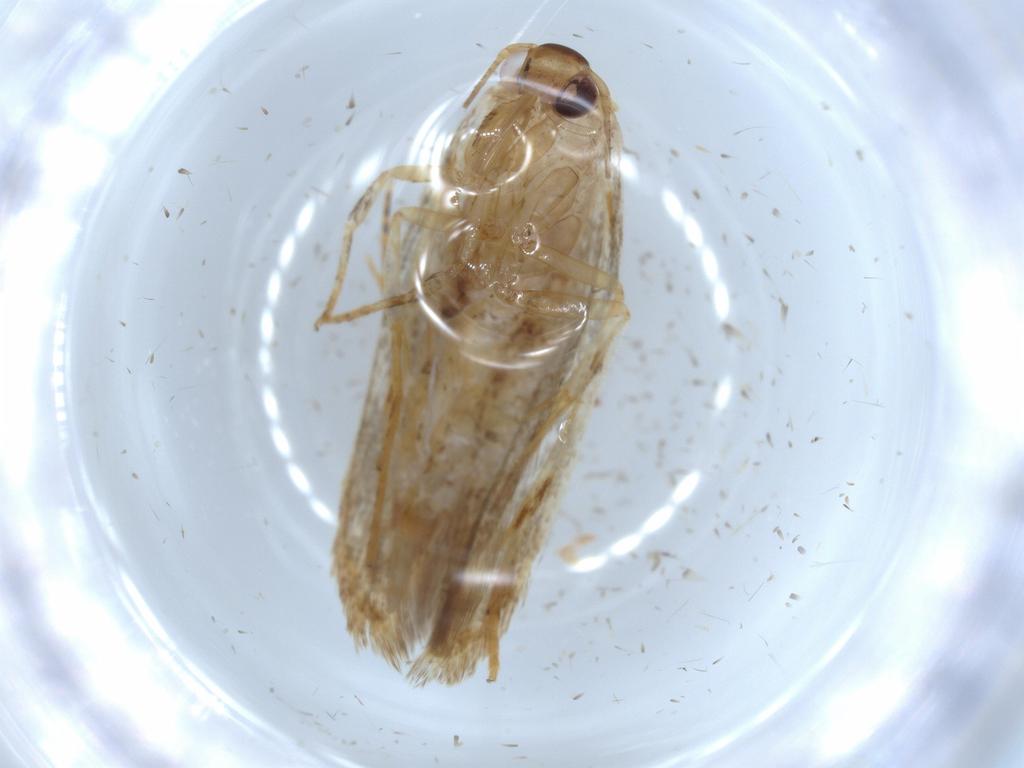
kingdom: Animalia
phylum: Arthropoda
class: Insecta
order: Lepidoptera
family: Coleophoridae
